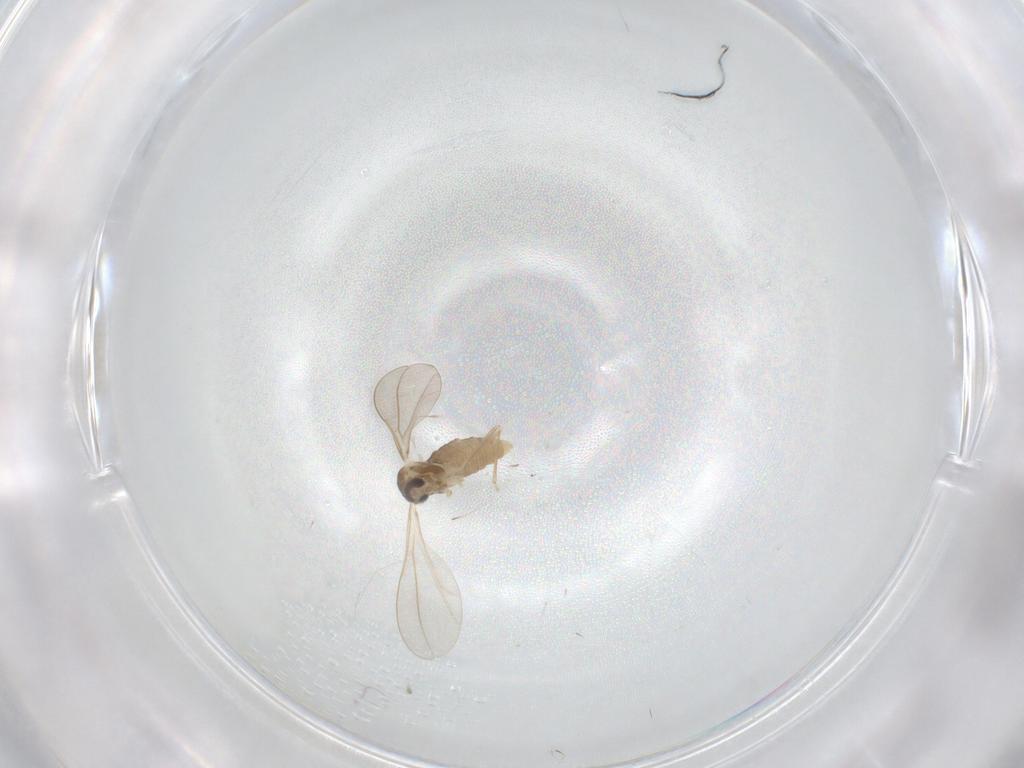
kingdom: Animalia
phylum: Arthropoda
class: Insecta
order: Diptera
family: Cecidomyiidae
